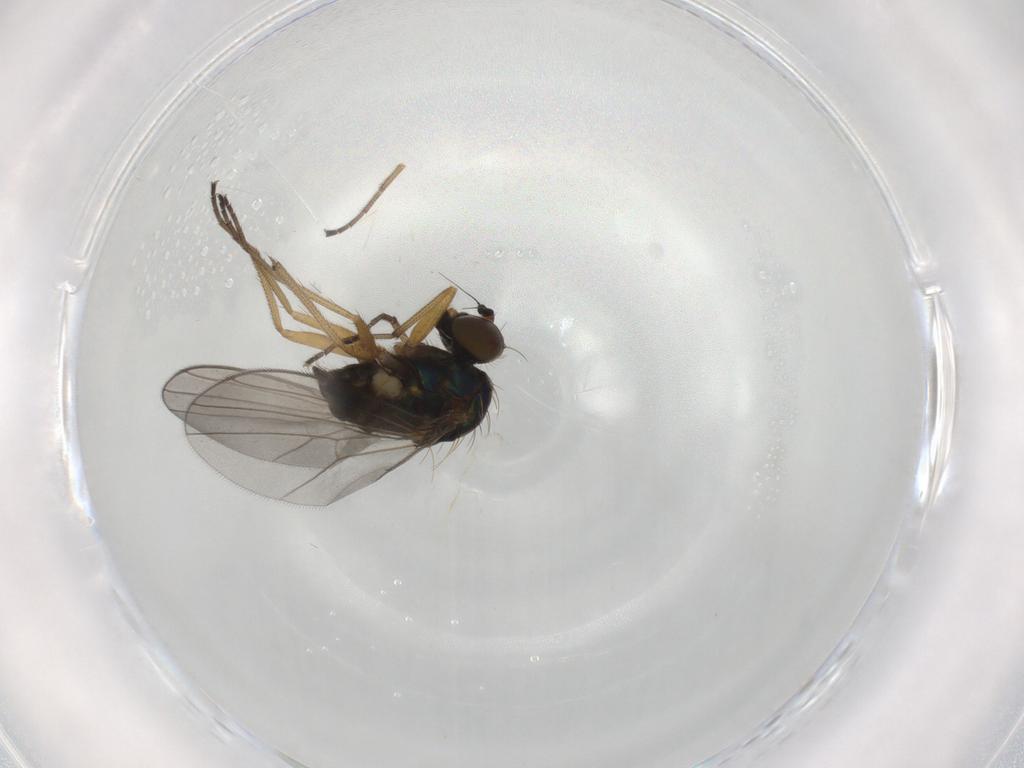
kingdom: Animalia
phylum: Arthropoda
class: Insecta
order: Diptera
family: Dolichopodidae
